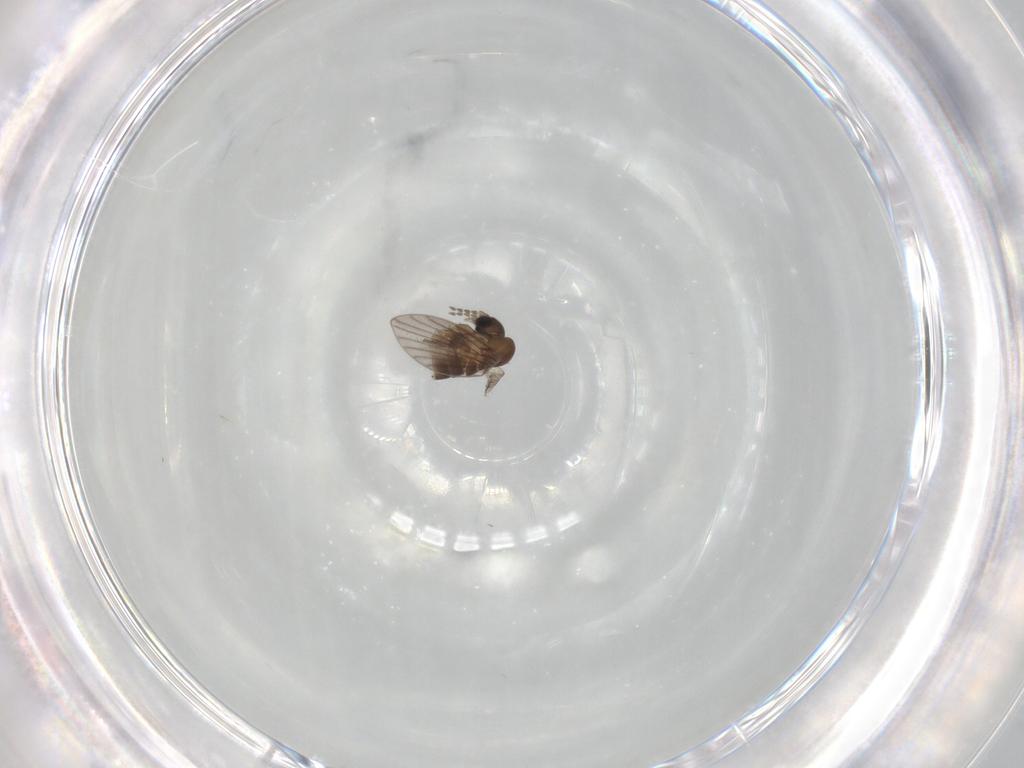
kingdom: Animalia
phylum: Arthropoda
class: Insecta
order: Diptera
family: Psychodidae
